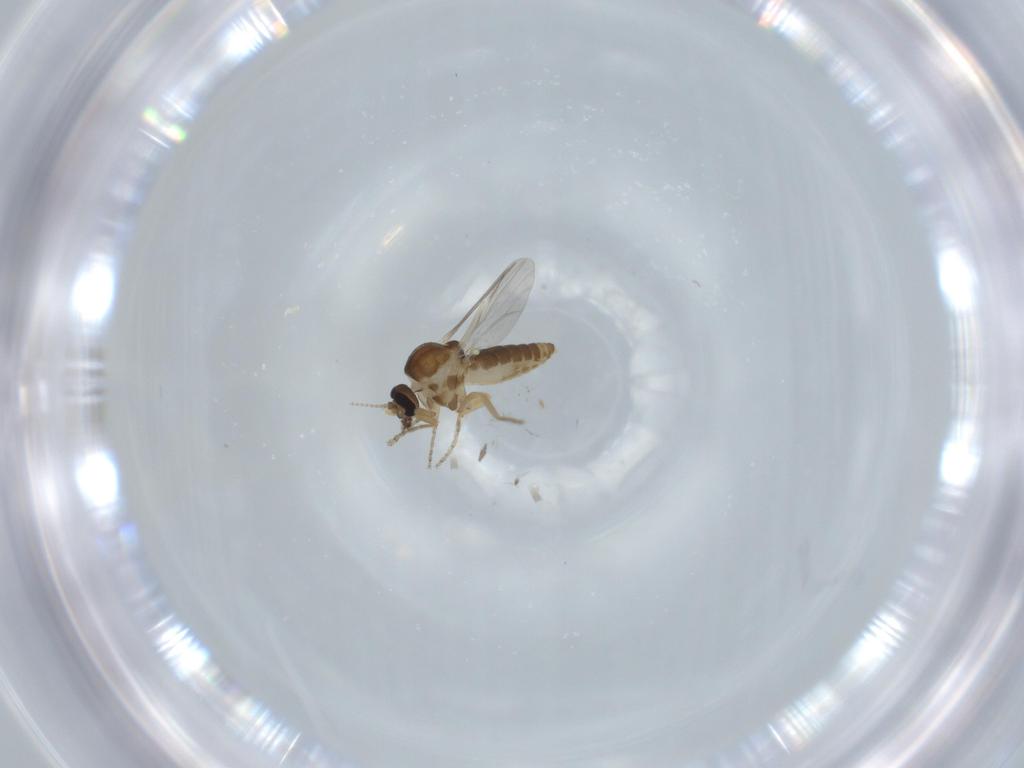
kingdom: Animalia
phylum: Arthropoda
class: Insecta
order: Diptera
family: Ceratopogonidae
